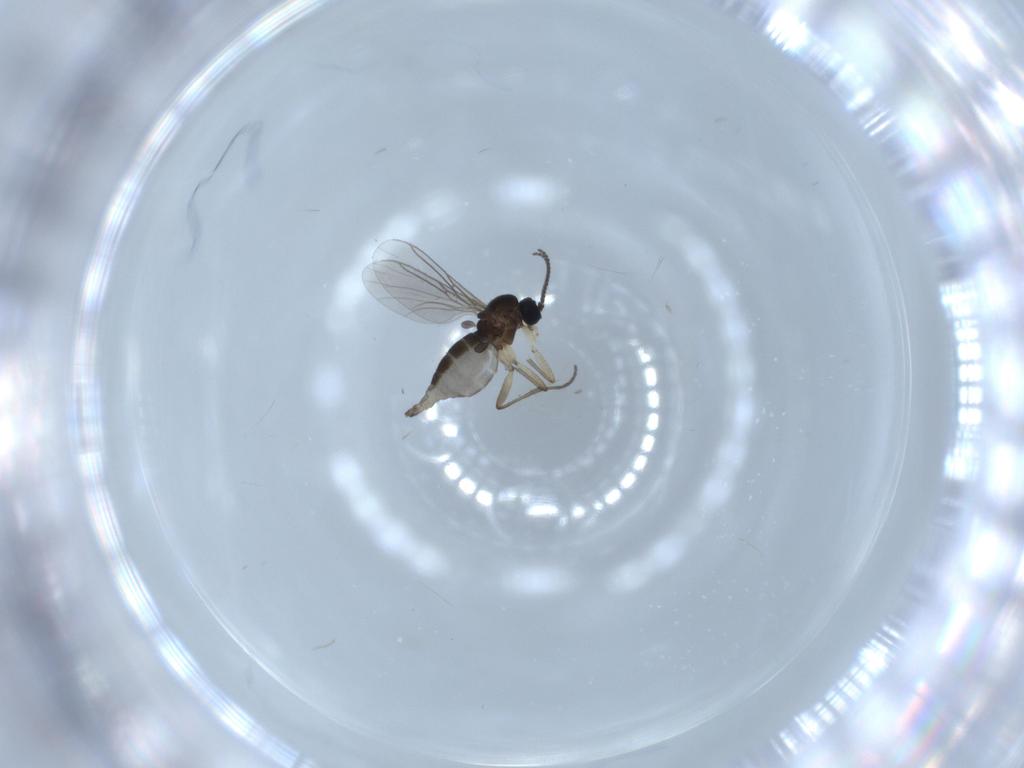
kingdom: Animalia
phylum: Arthropoda
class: Insecta
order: Diptera
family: Sciaridae
